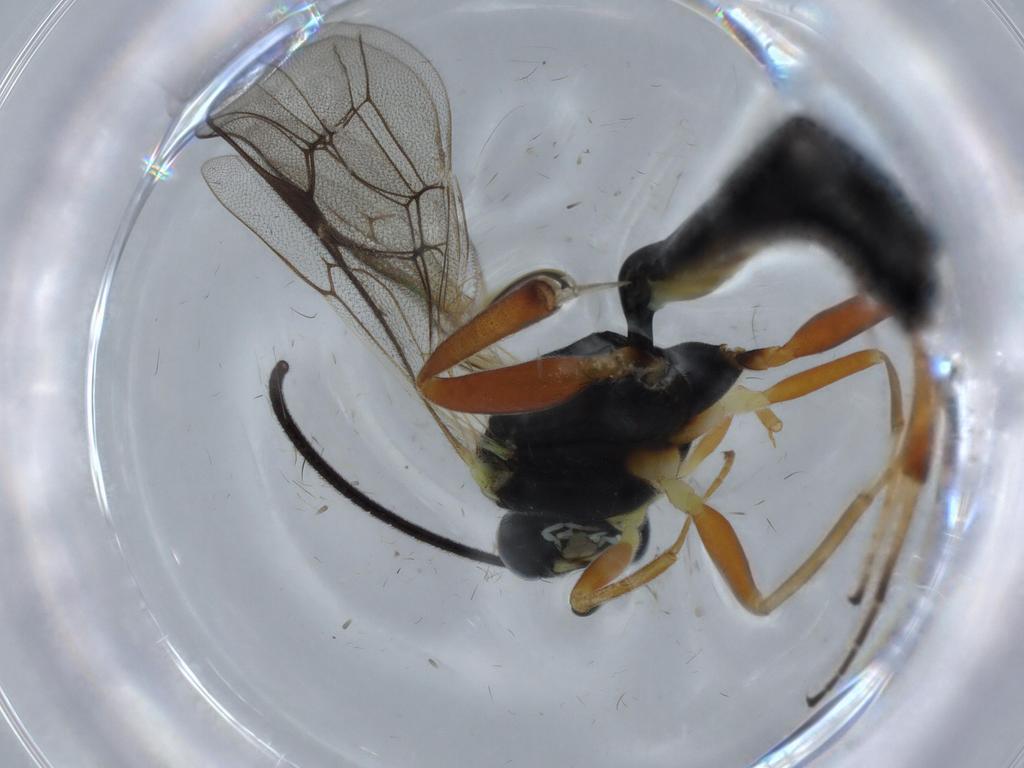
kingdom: Animalia
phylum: Arthropoda
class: Insecta
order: Hymenoptera
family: Ichneumonidae
